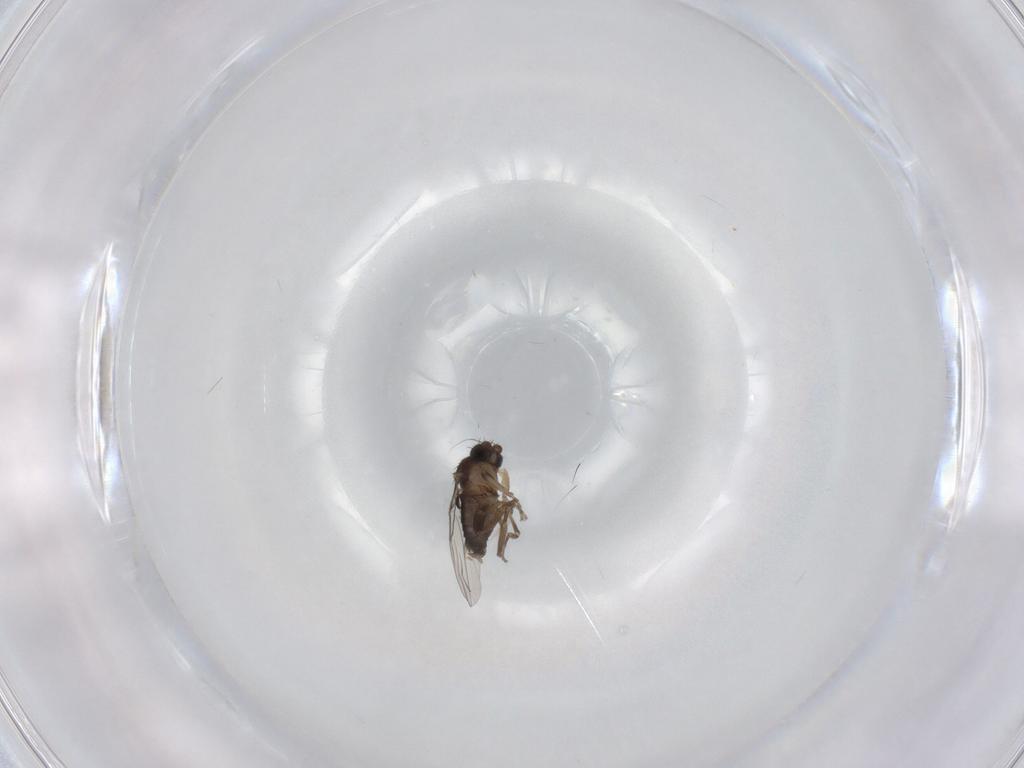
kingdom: Animalia
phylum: Arthropoda
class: Insecta
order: Diptera
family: Phoridae
